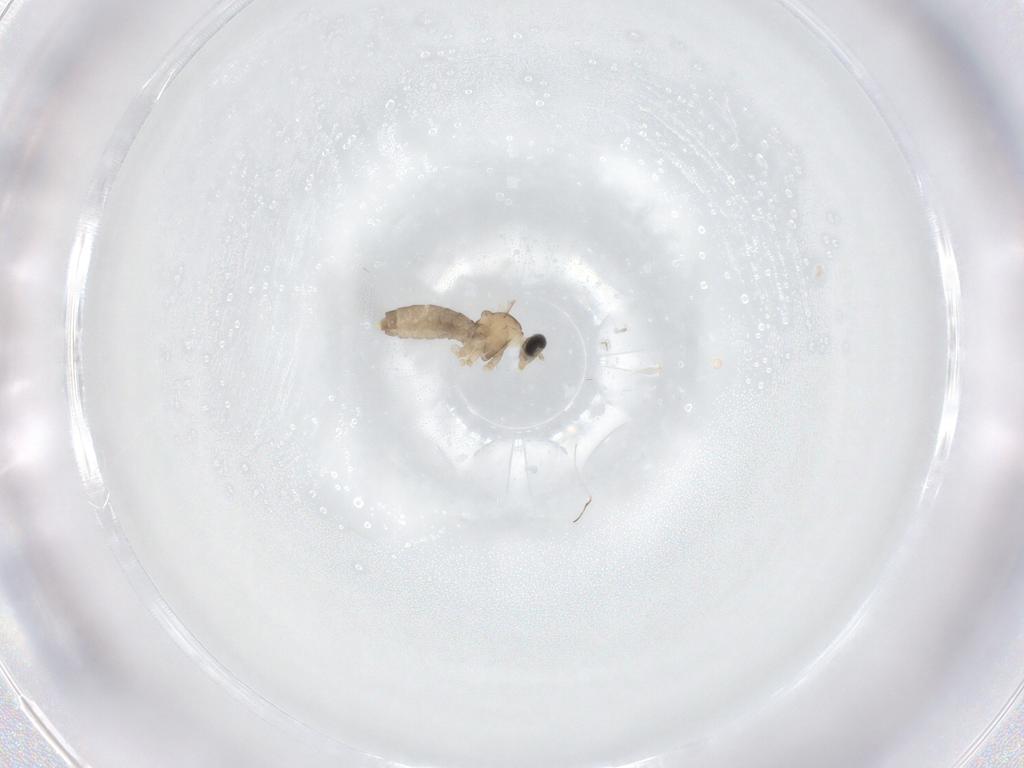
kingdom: Animalia
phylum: Arthropoda
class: Insecta
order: Diptera
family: Cecidomyiidae
